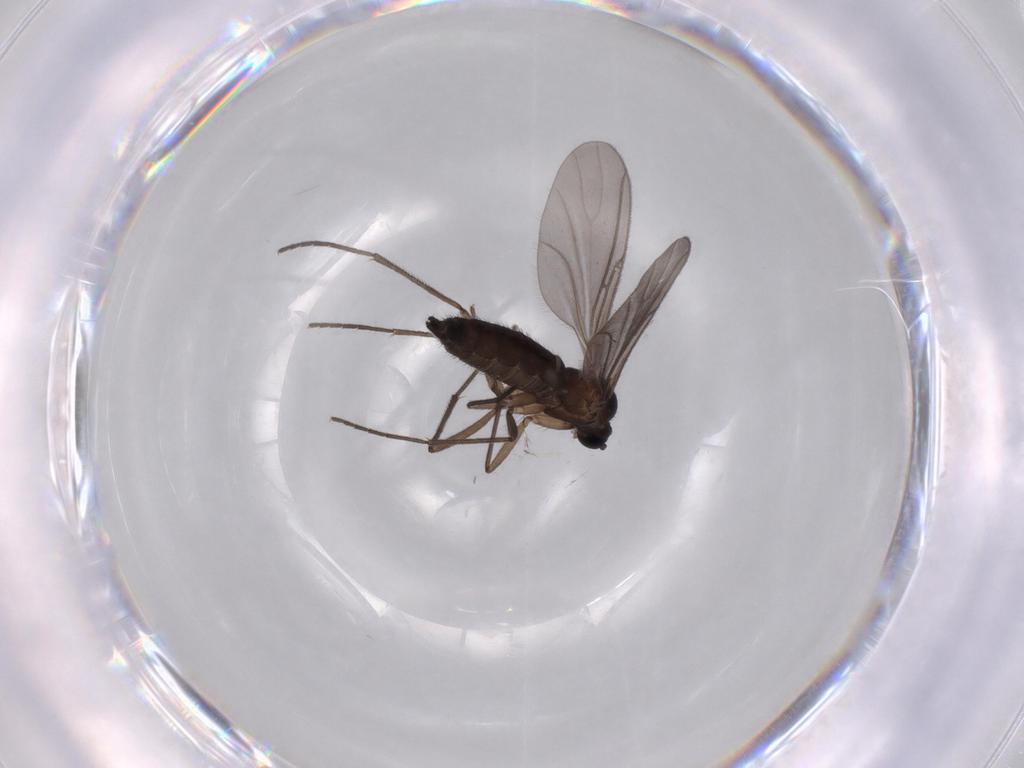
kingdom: Animalia
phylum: Arthropoda
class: Insecta
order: Diptera
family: Sciaridae
